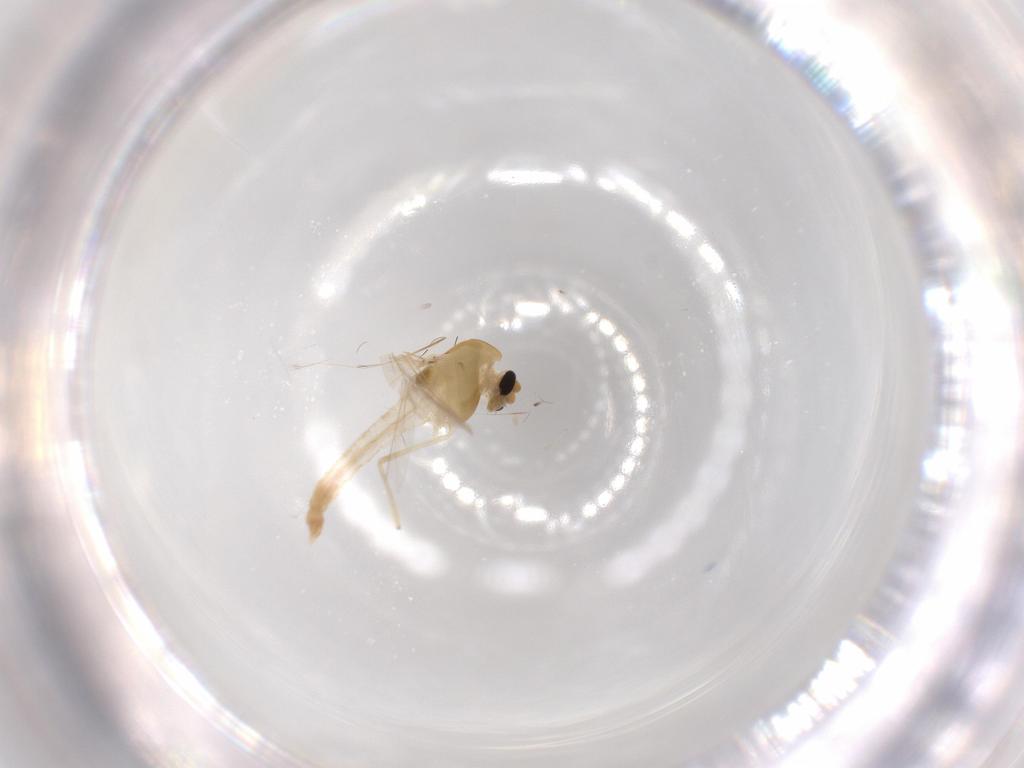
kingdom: Animalia
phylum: Arthropoda
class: Insecta
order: Diptera
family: Chironomidae
